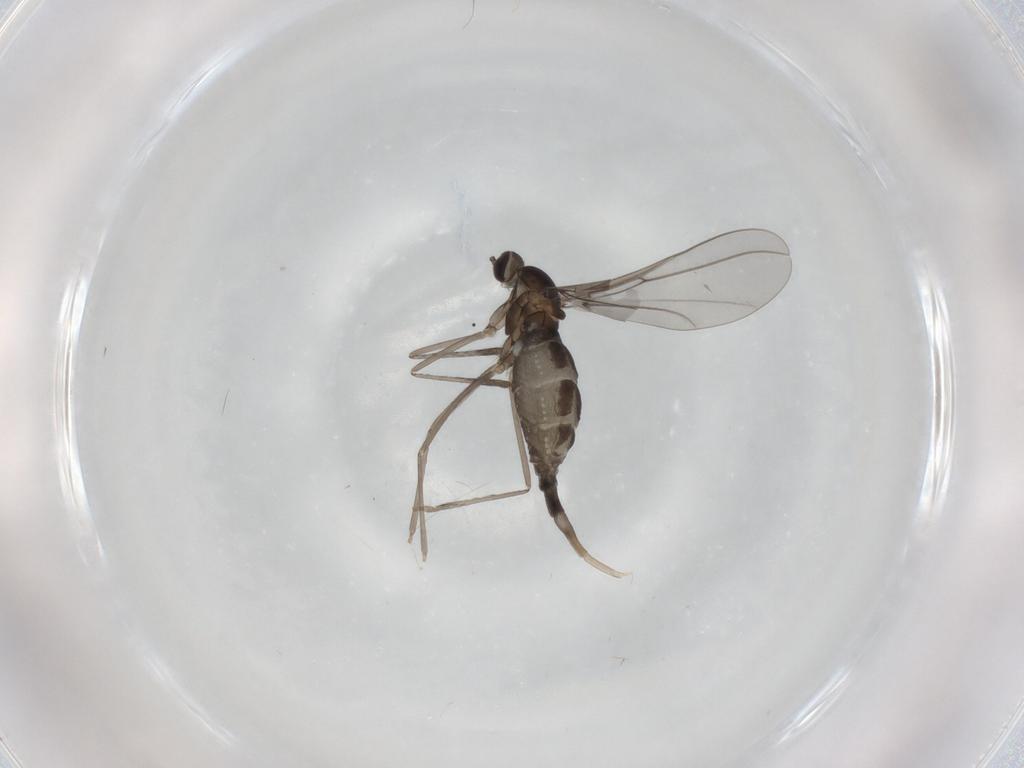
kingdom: Animalia
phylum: Arthropoda
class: Insecta
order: Diptera
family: Cecidomyiidae
